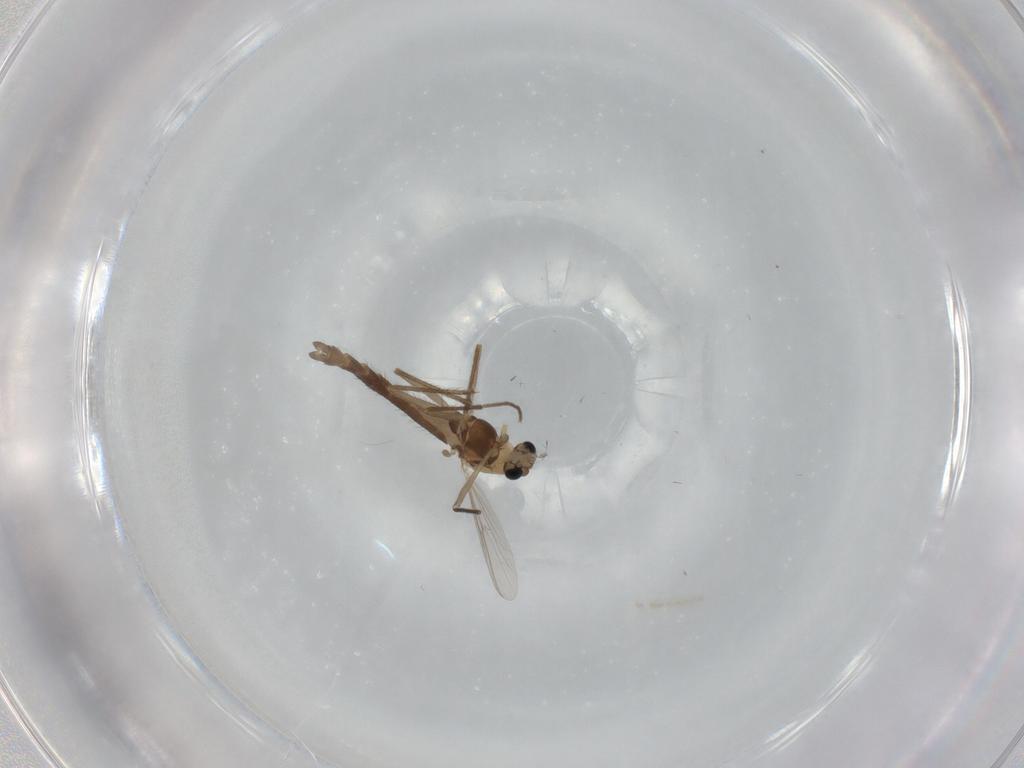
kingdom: Animalia
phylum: Arthropoda
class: Insecta
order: Diptera
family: Chironomidae
